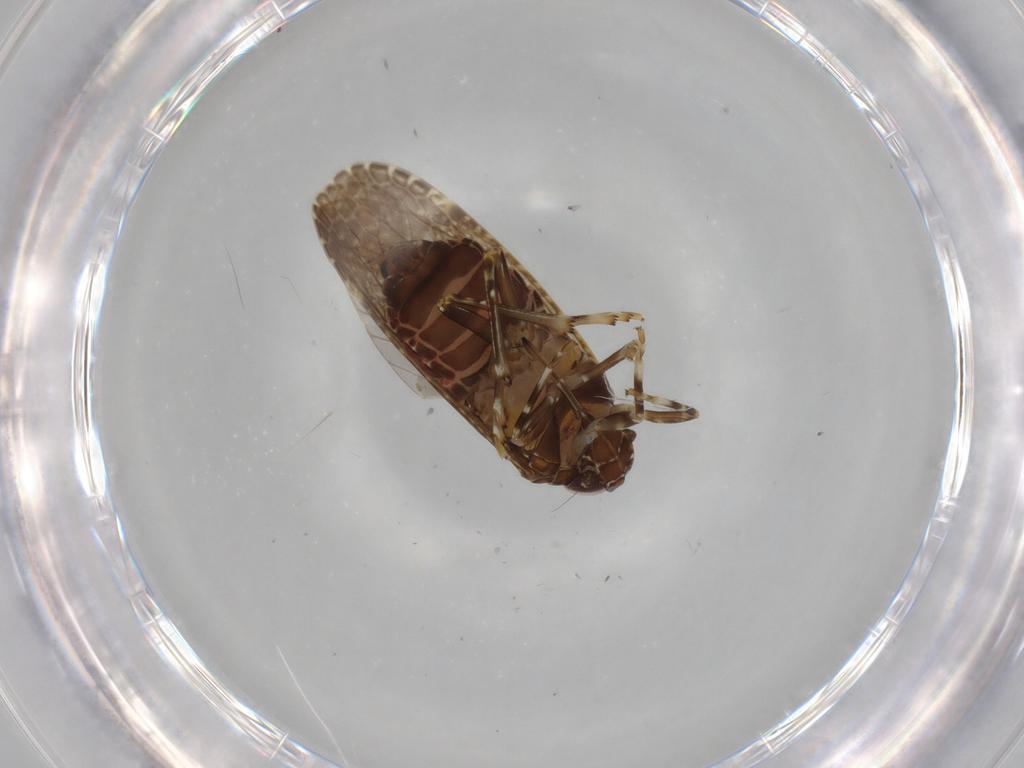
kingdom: Animalia
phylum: Arthropoda
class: Insecta
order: Hemiptera
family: Achilidae
